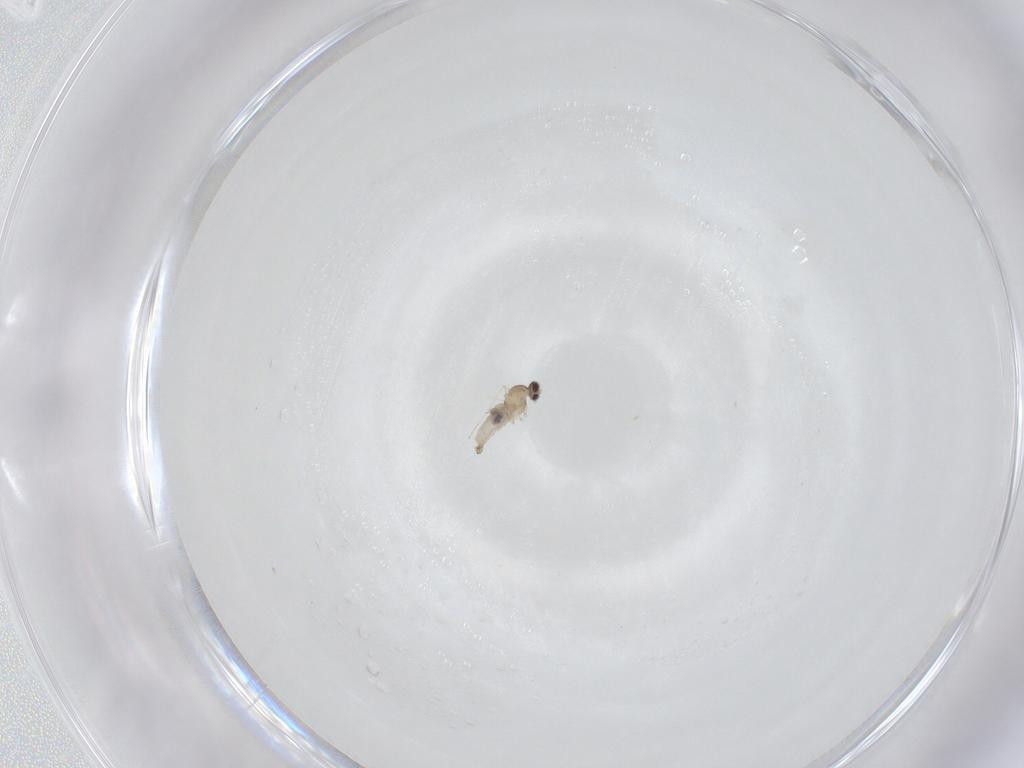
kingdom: Animalia
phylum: Arthropoda
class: Insecta
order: Diptera
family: Cecidomyiidae
